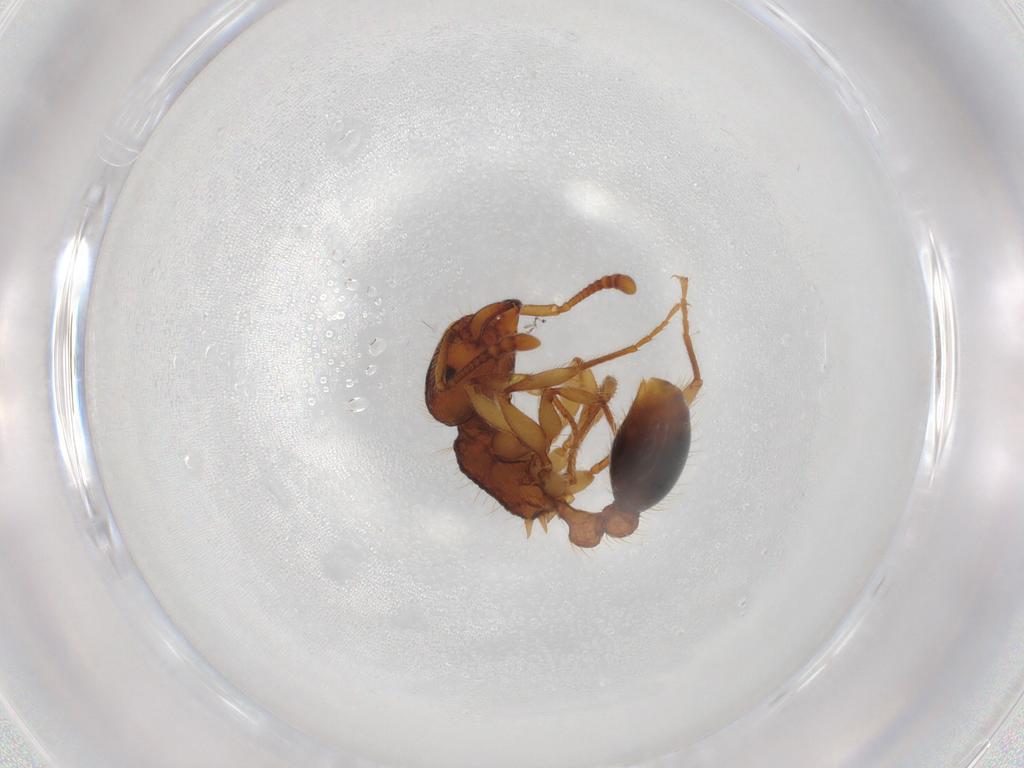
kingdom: Animalia
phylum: Arthropoda
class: Insecta
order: Hymenoptera
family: Formicidae
